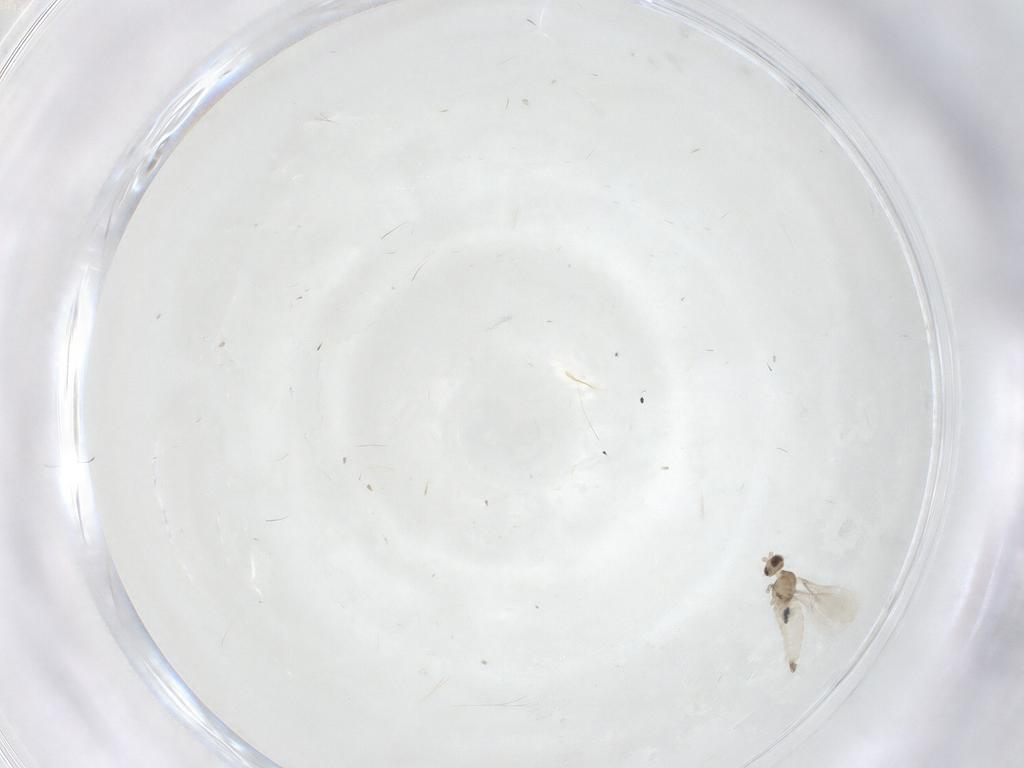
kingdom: Animalia
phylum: Arthropoda
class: Insecta
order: Diptera
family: Cecidomyiidae
